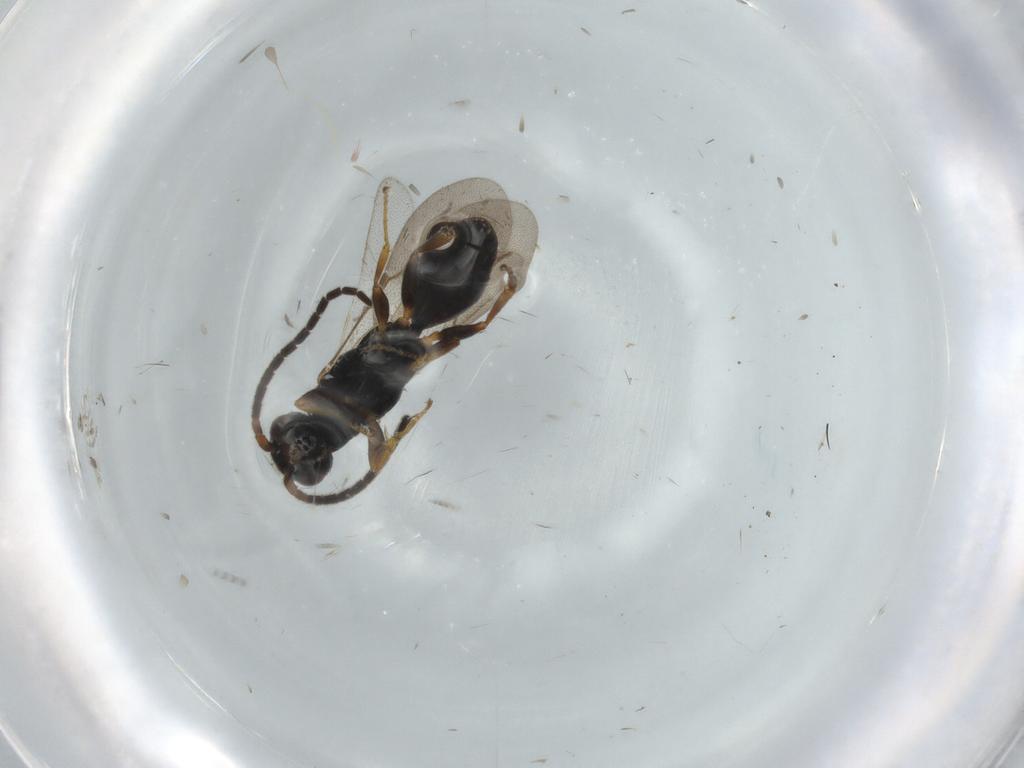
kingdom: Animalia
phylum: Arthropoda
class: Insecta
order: Hymenoptera
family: Bethylidae
